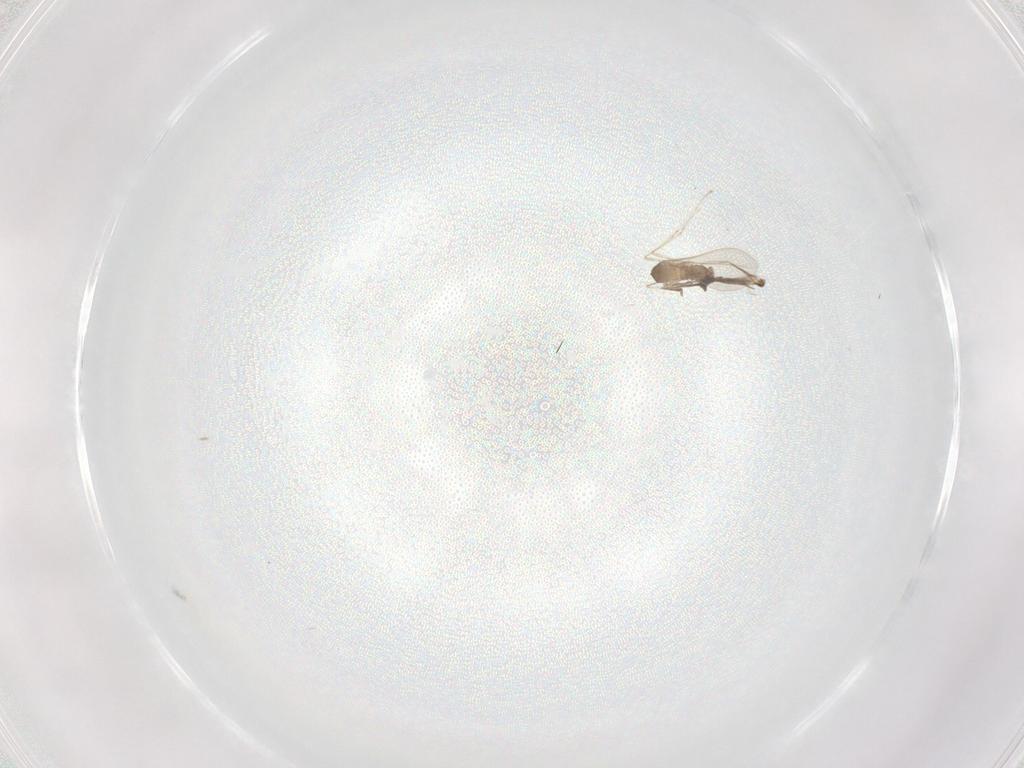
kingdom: Animalia
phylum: Arthropoda
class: Insecta
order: Diptera
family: Cecidomyiidae
